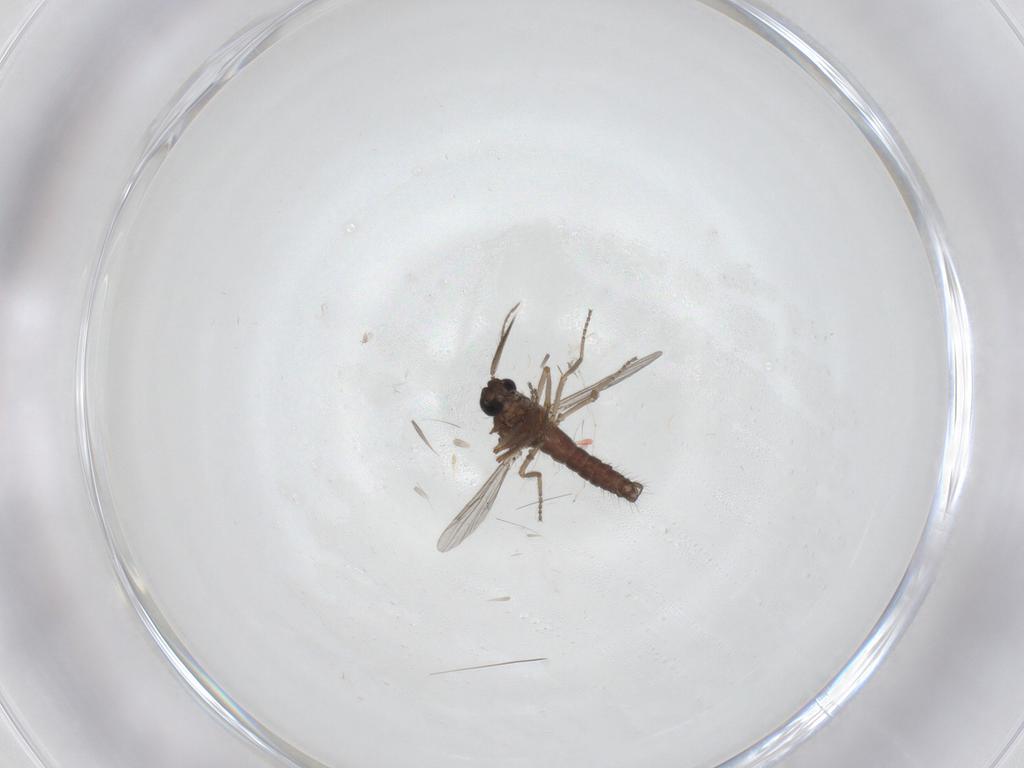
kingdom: Animalia
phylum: Arthropoda
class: Insecta
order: Diptera
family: Ceratopogonidae
